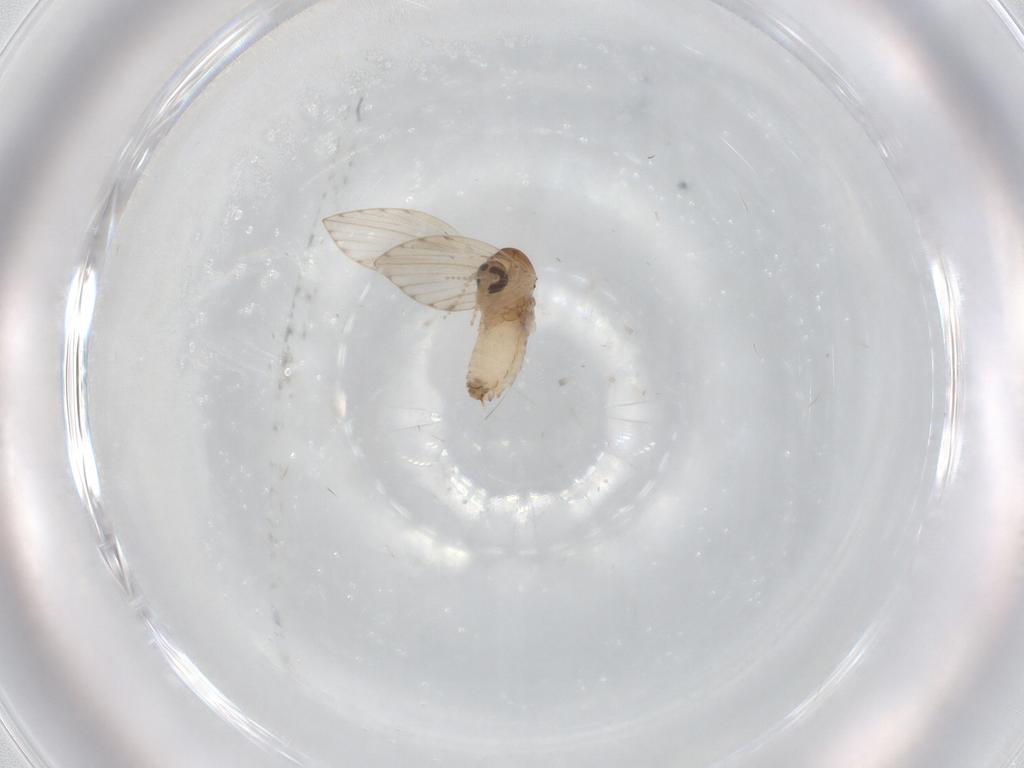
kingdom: Animalia
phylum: Arthropoda
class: Insecta
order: Diptera
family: Psychodidae
